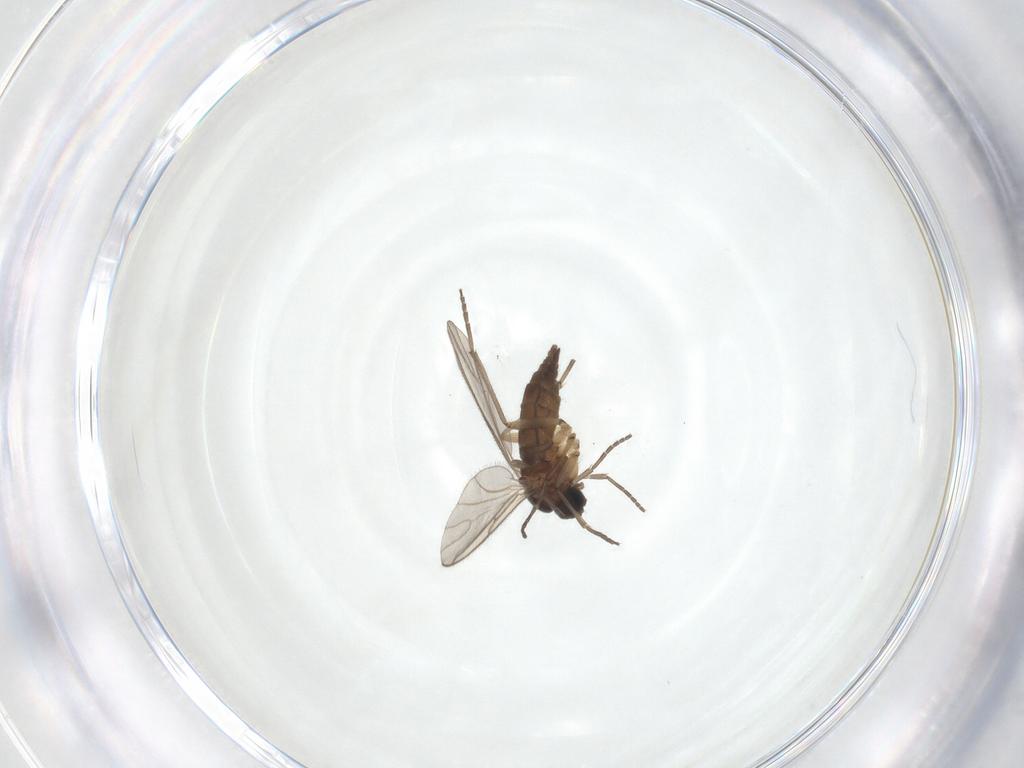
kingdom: Animalia
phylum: Arthropoda
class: Insecta
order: Diptera
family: Sciaridae
